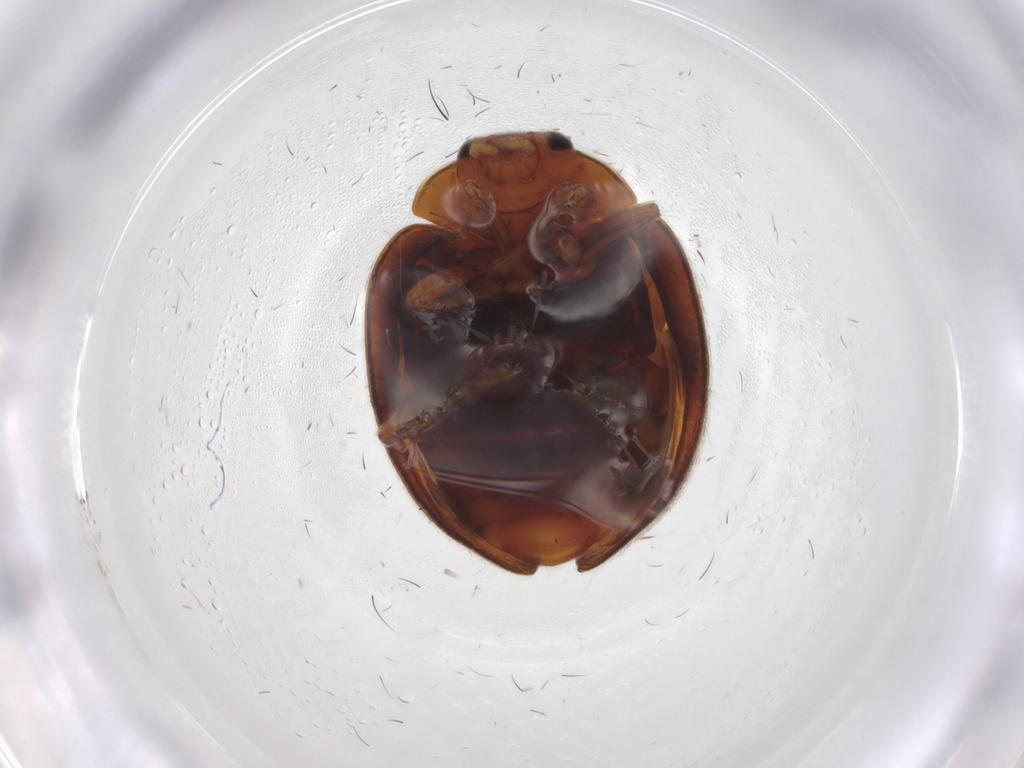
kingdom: Animalia
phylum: Arthropoda
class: Insecta
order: Coleoptera
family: Coccinellidae
